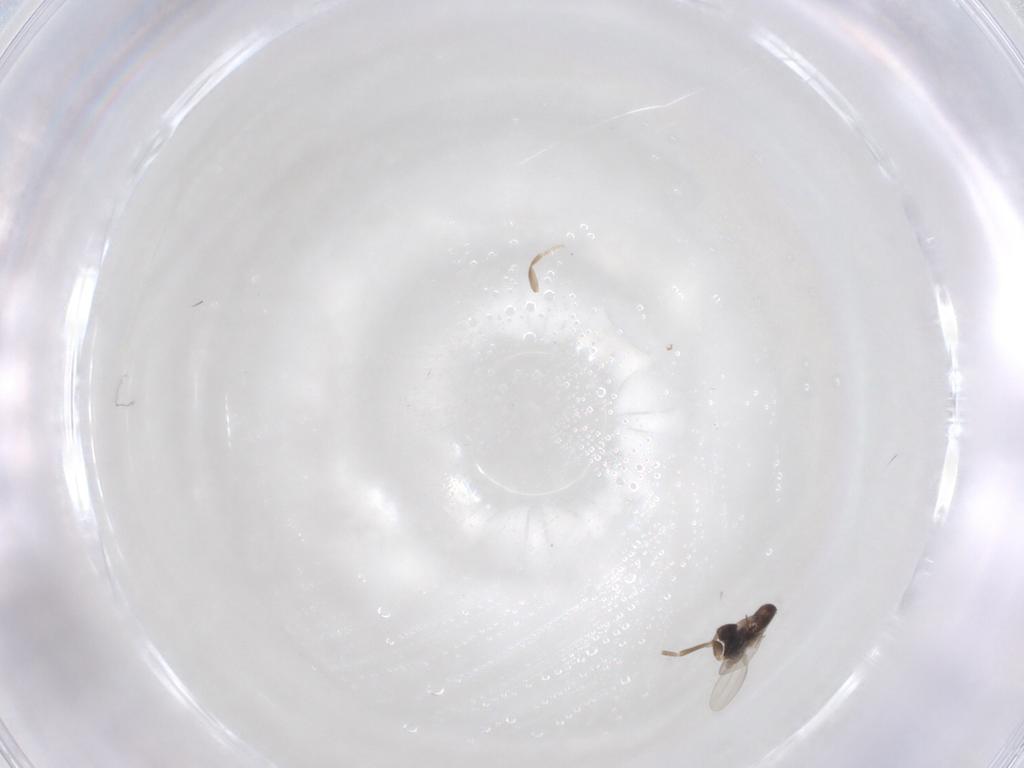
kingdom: Animalia
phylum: Arthropoda
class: Insecta
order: Diptera
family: Phoridae
